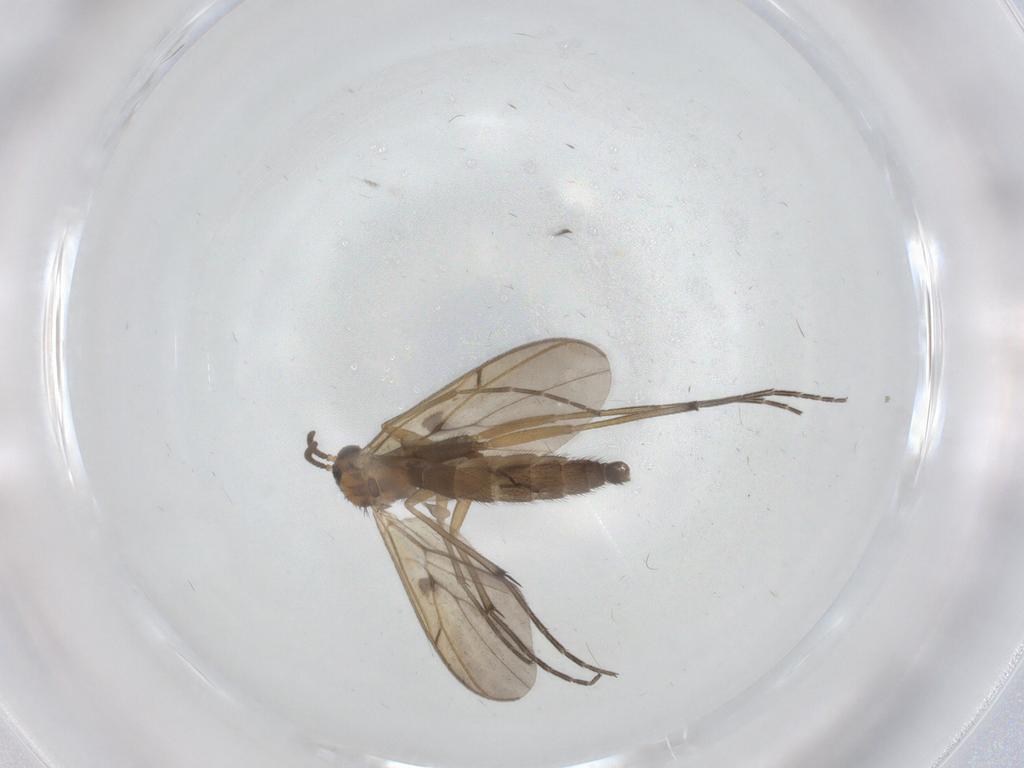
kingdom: Animalia
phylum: Arthropoda
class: Insecta
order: Diptera
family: Keroplatidae
